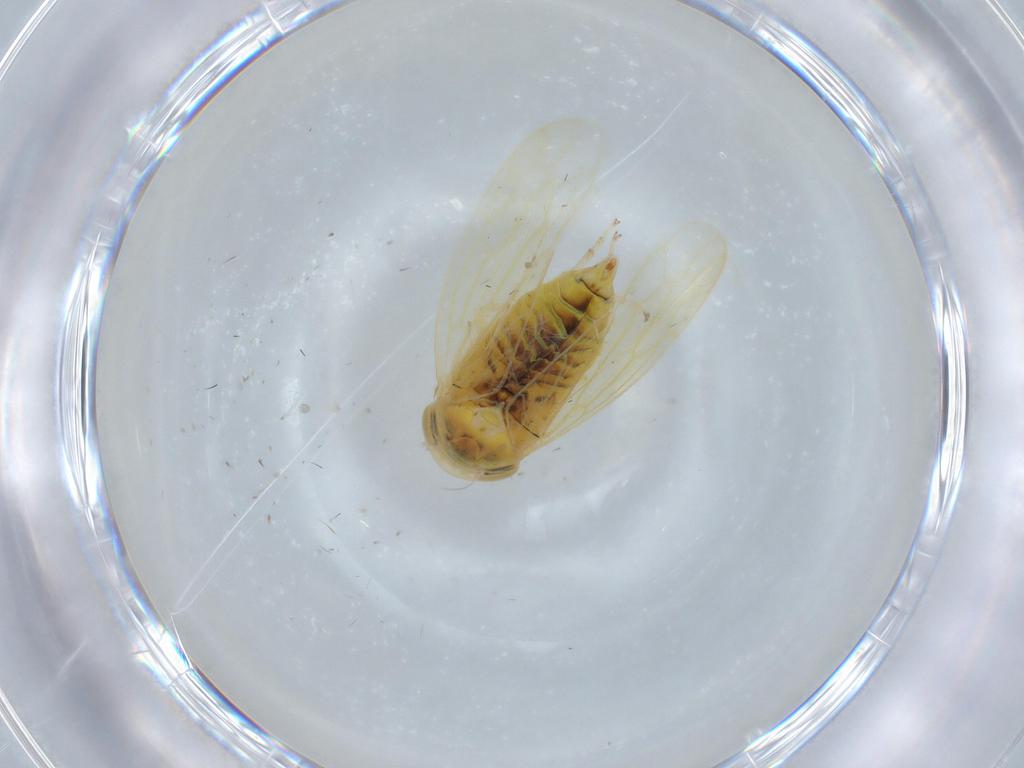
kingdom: Animalia
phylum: Arthropoda
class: Insecta
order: Hemiptera
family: Cicadellidae
